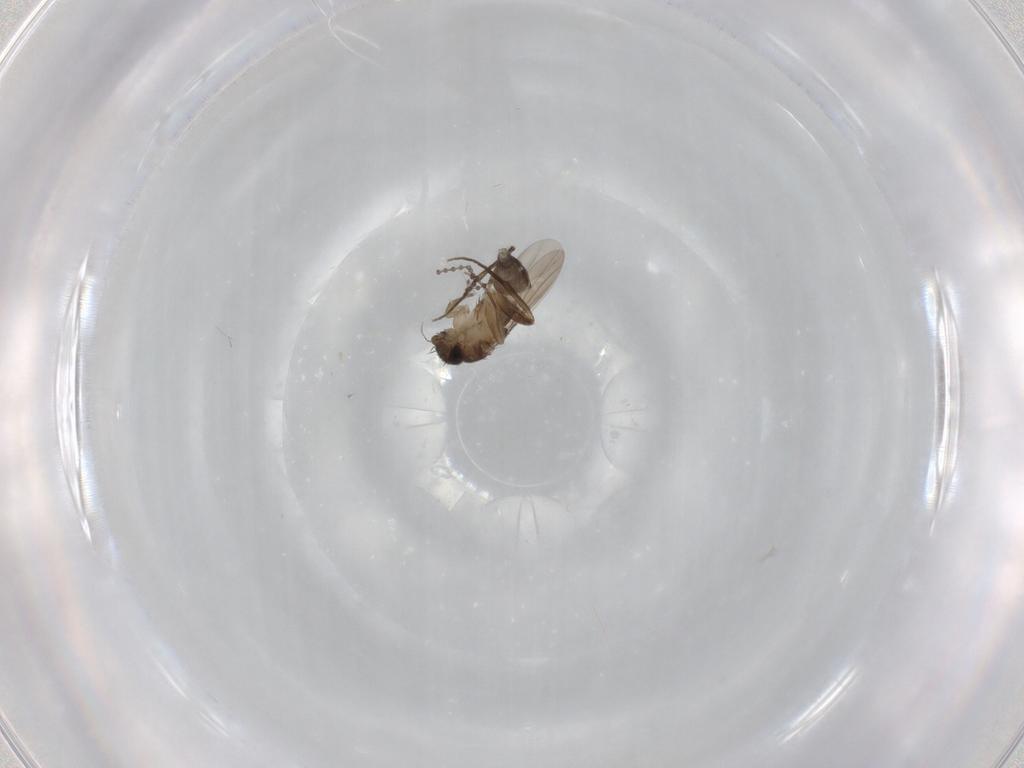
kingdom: Animalia
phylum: Arthropoda
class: Insecta
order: Diptera
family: Phoridae
